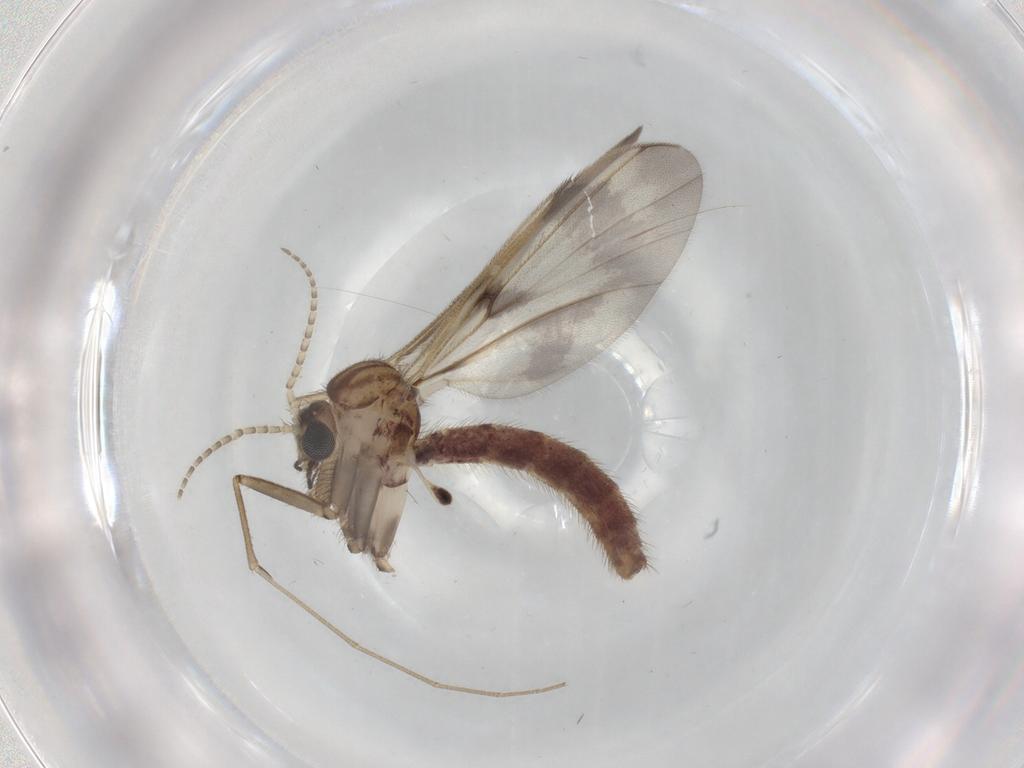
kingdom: Animalia
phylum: Arthropoda
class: Insecta
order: Diptera
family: Cecidomyiidae
